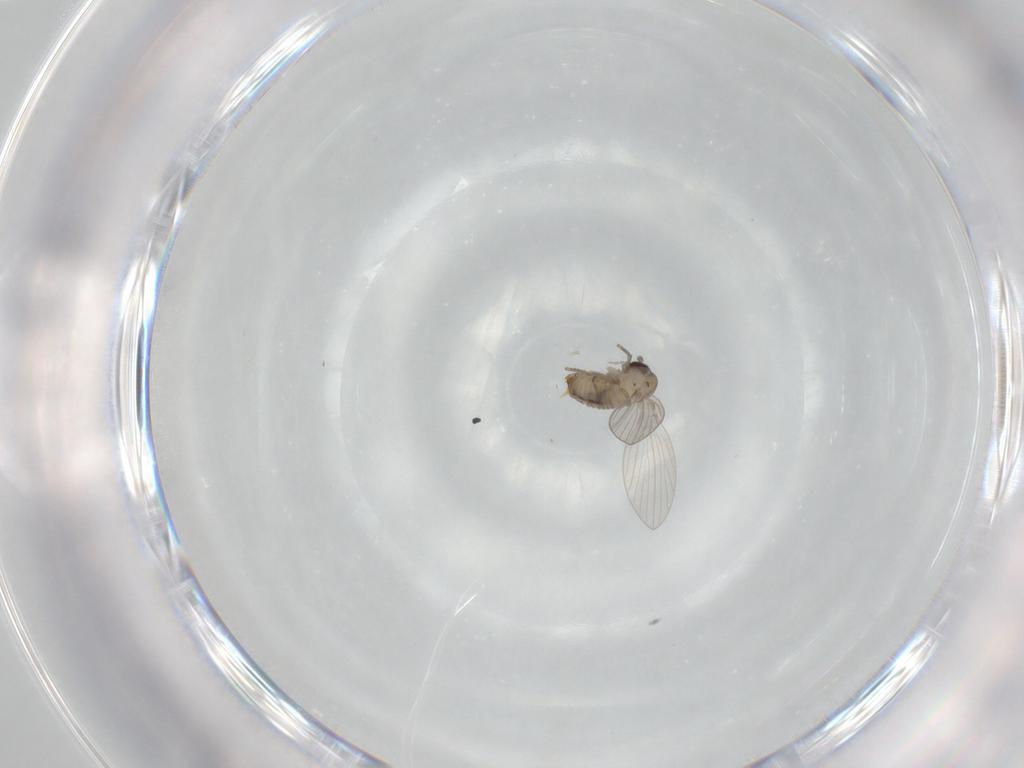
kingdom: Animalia
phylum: Arthropoda
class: Insecta
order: Diptera
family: Psychodidae
